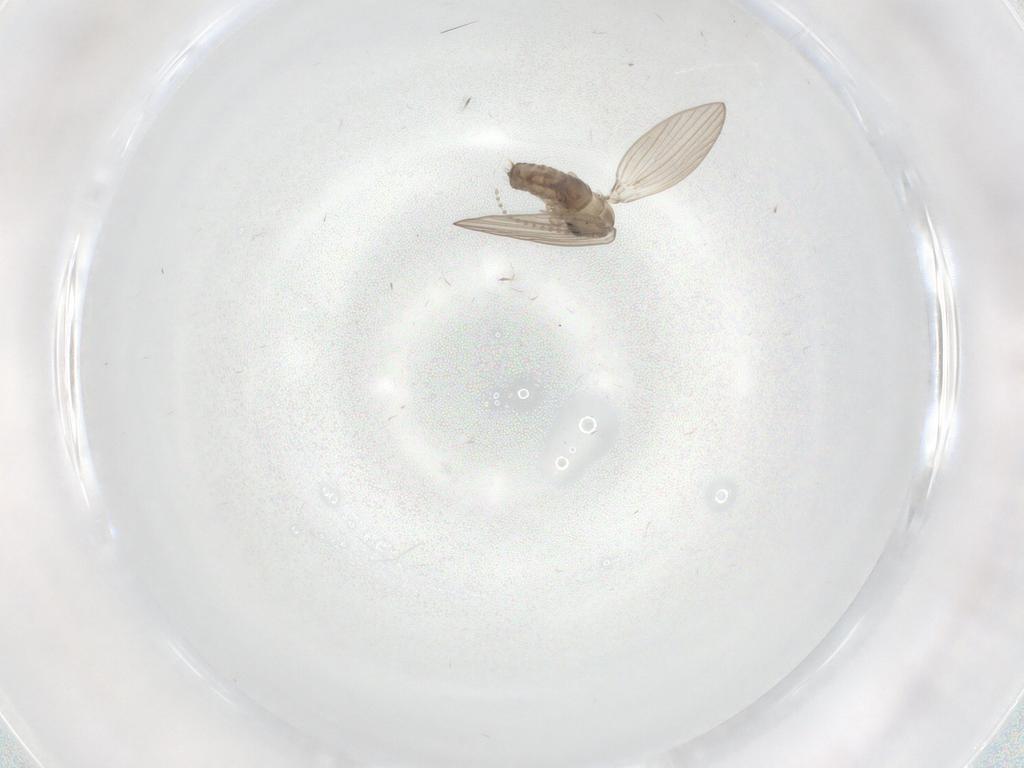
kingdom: Animalia
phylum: Arthropoda
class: Insecta
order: Diptera
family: Psychodidae
